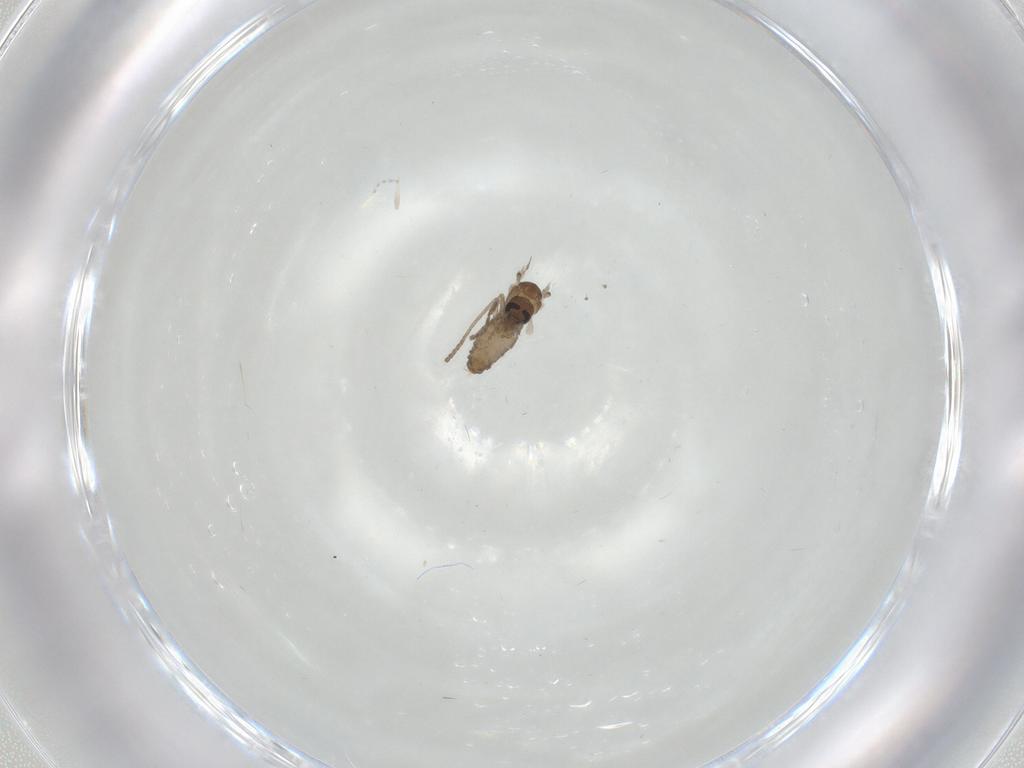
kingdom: Animalia
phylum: Arthropoda
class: Insecta
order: Diptera
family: Psychodidae
